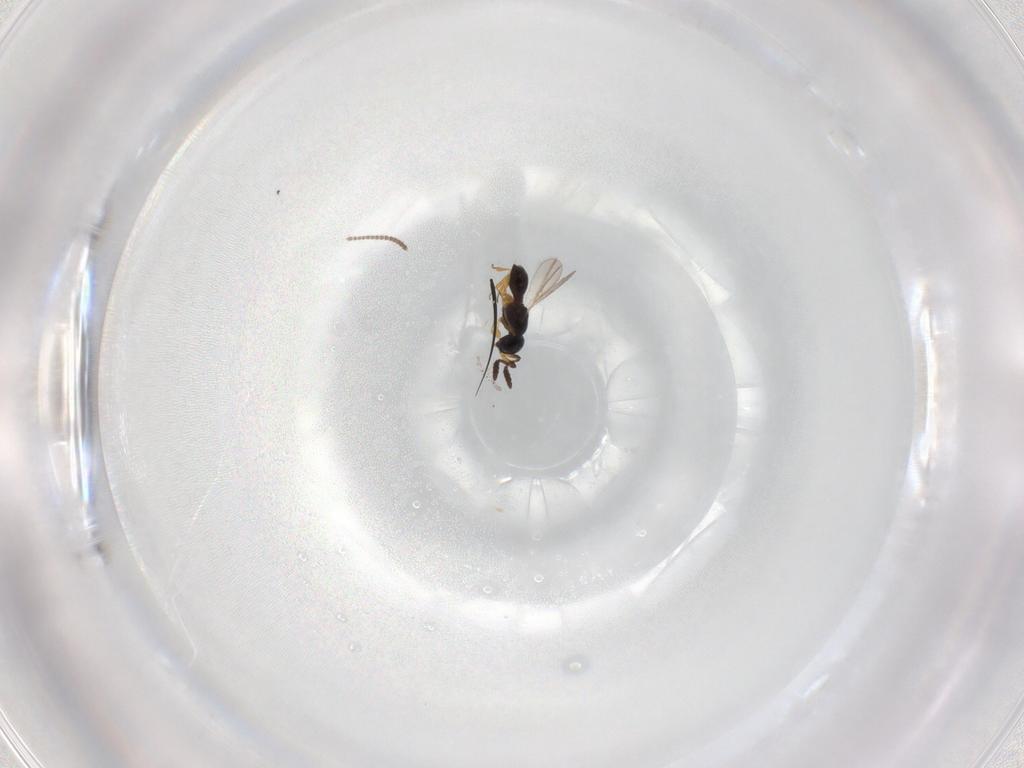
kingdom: Animalia
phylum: Arthropoda
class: Insecta
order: Hymenoptera
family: Scelionidae
